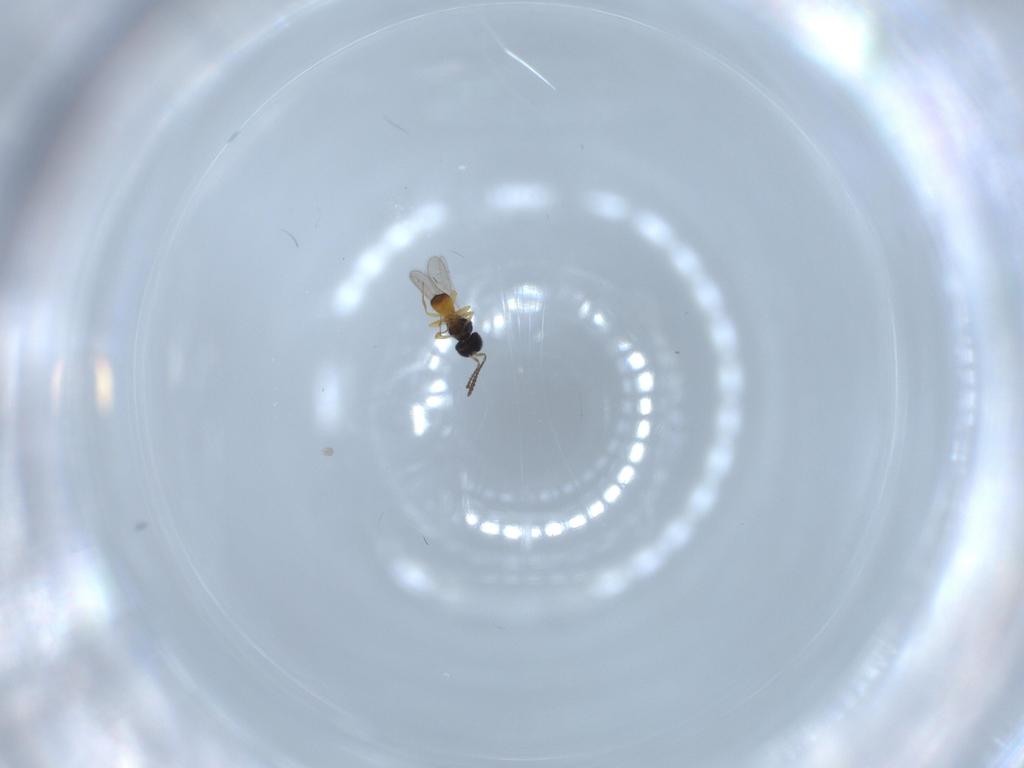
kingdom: Animalia
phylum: Arthropoda
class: Insecta
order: Hymenoptera
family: Scelionidae
